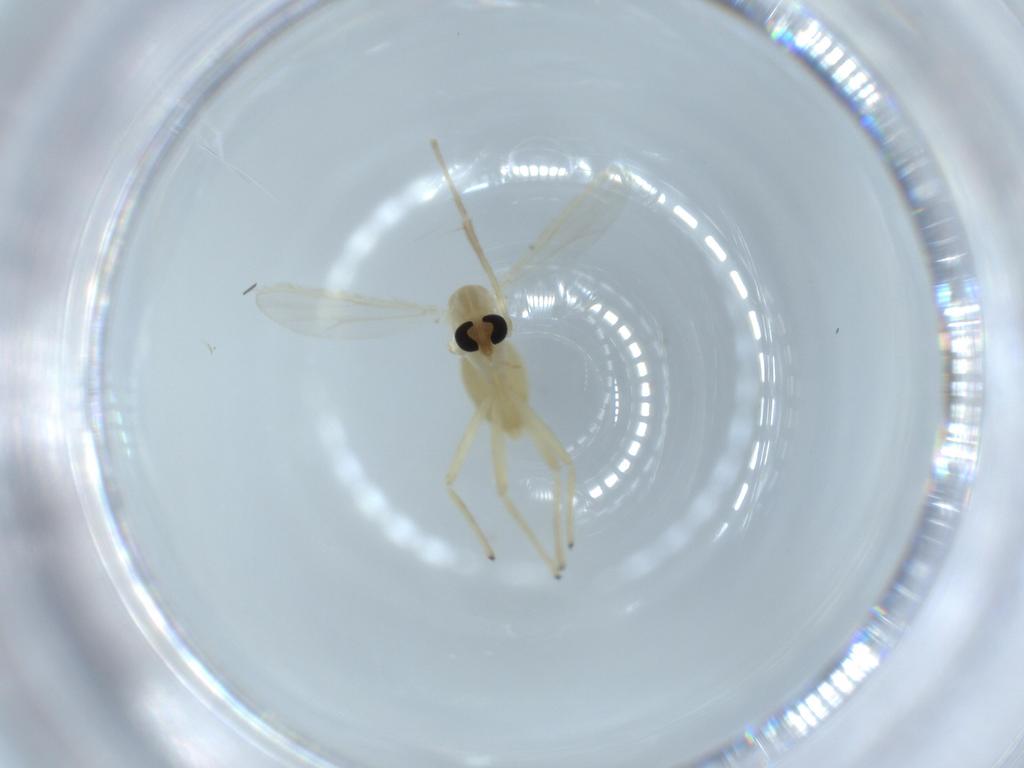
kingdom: Animalia
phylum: Arthropoda
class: Insecta
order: Diptera
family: Chironomidae
